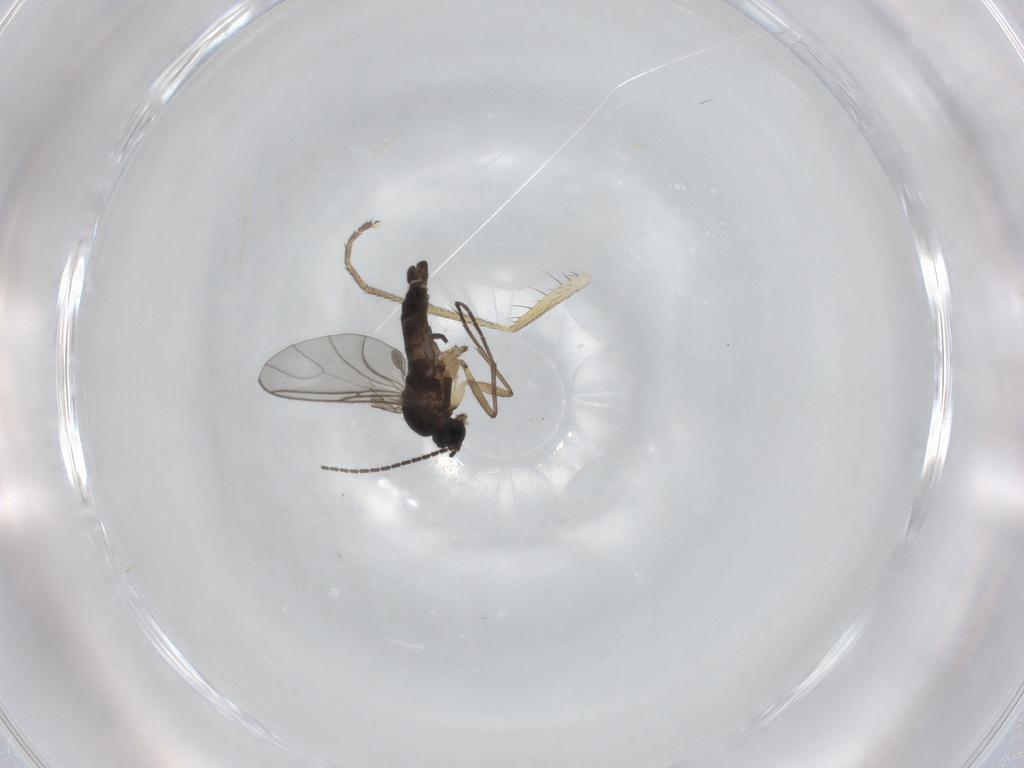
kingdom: Animalia
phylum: Arthropoda
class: Insecta
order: Diptera
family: Sciaridae
